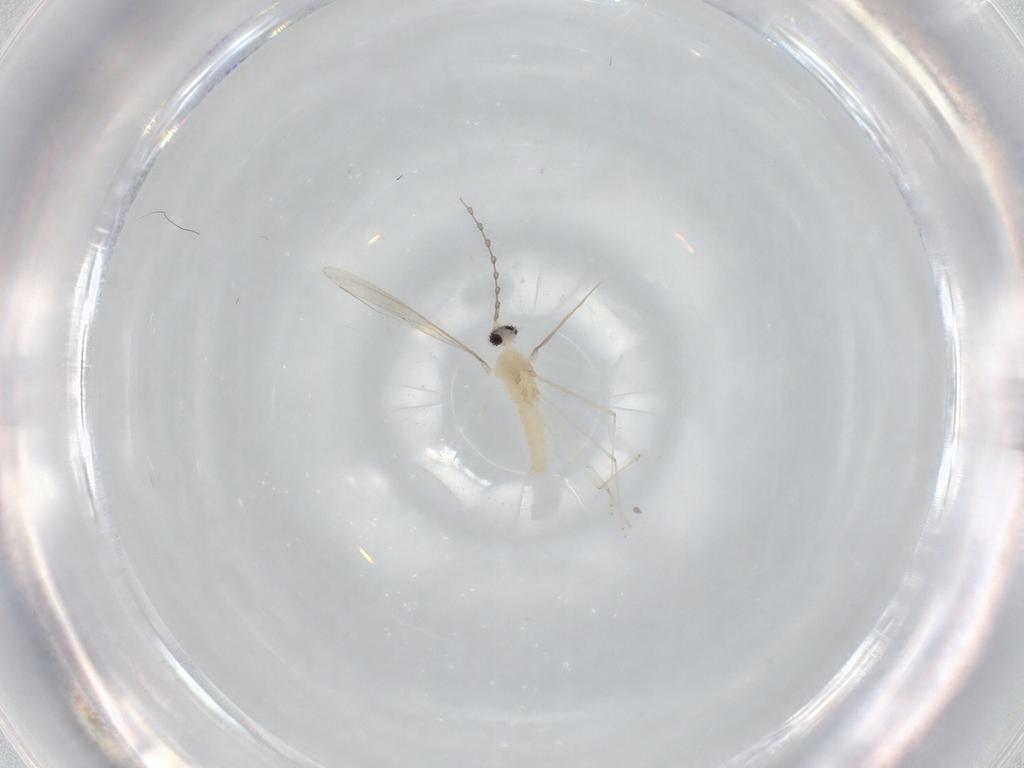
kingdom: Animalia
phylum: Arthropoda
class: Insecta
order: Diptera
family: Cecidomyiidae
